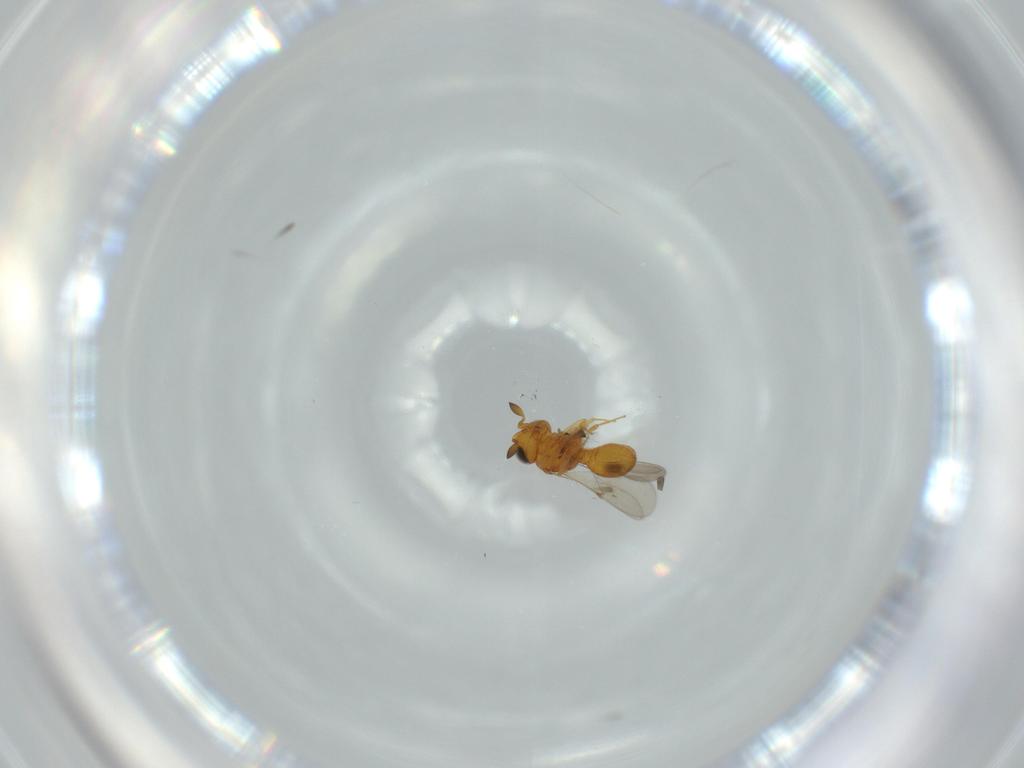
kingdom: Animalia
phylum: Arthropoda
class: Insecta
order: Hymenoptera
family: Scelionidae
